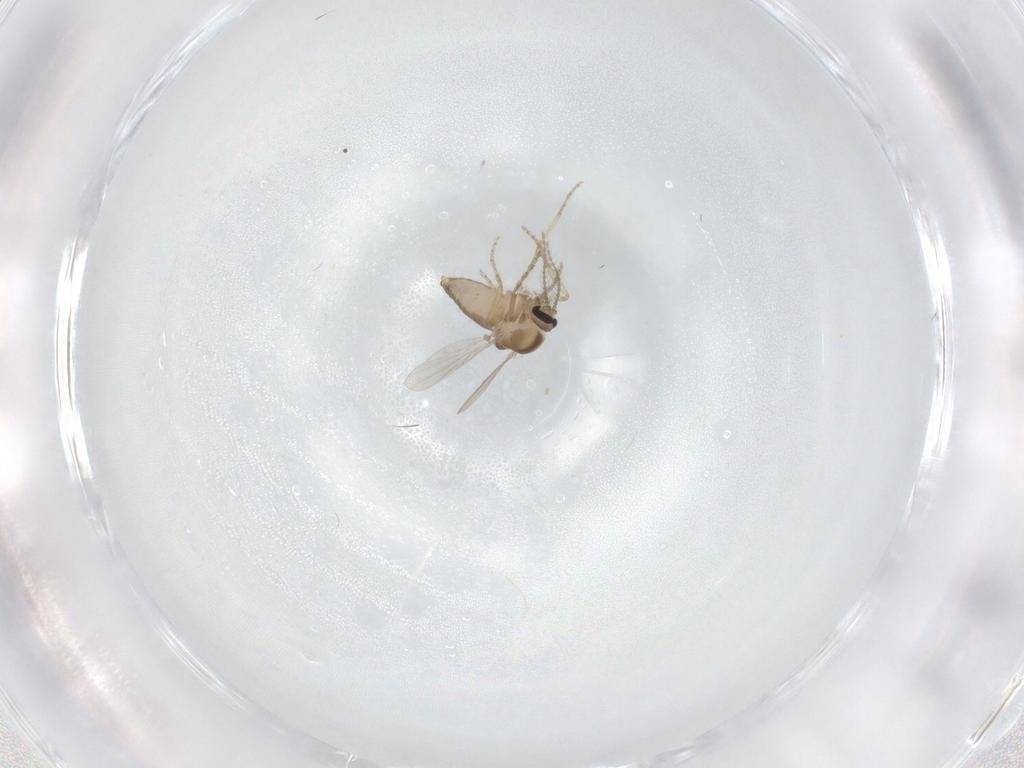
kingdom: Animalia
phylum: Arthropoda
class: Insecta
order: Diptera
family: Ceratopogonidae
